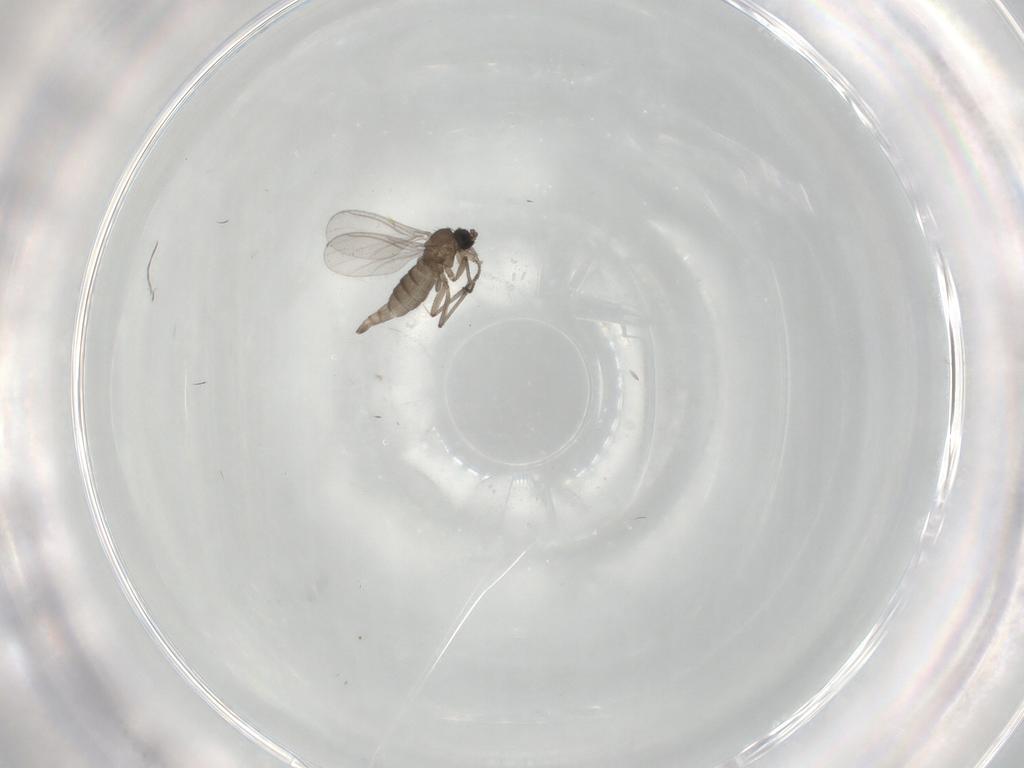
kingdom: Animalia
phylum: Arthropoda
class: Insecta
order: Diptera
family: Sciaridae
